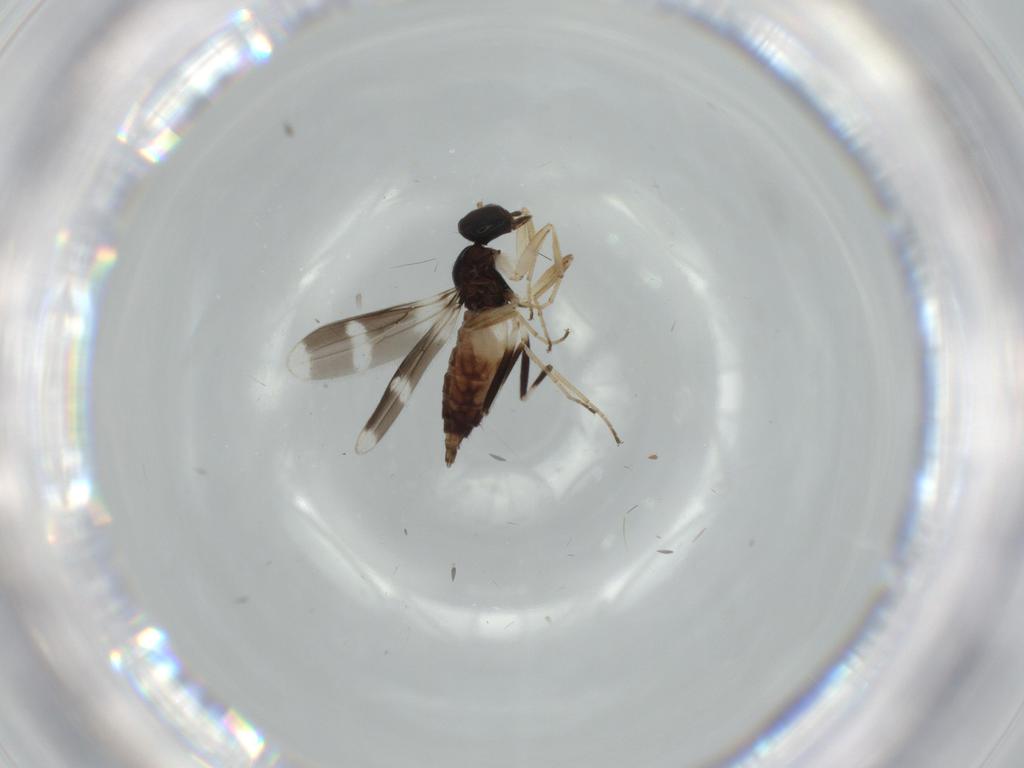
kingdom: Animalia
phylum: Arthropoda
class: Insecta
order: Diptera
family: Hybotidae
